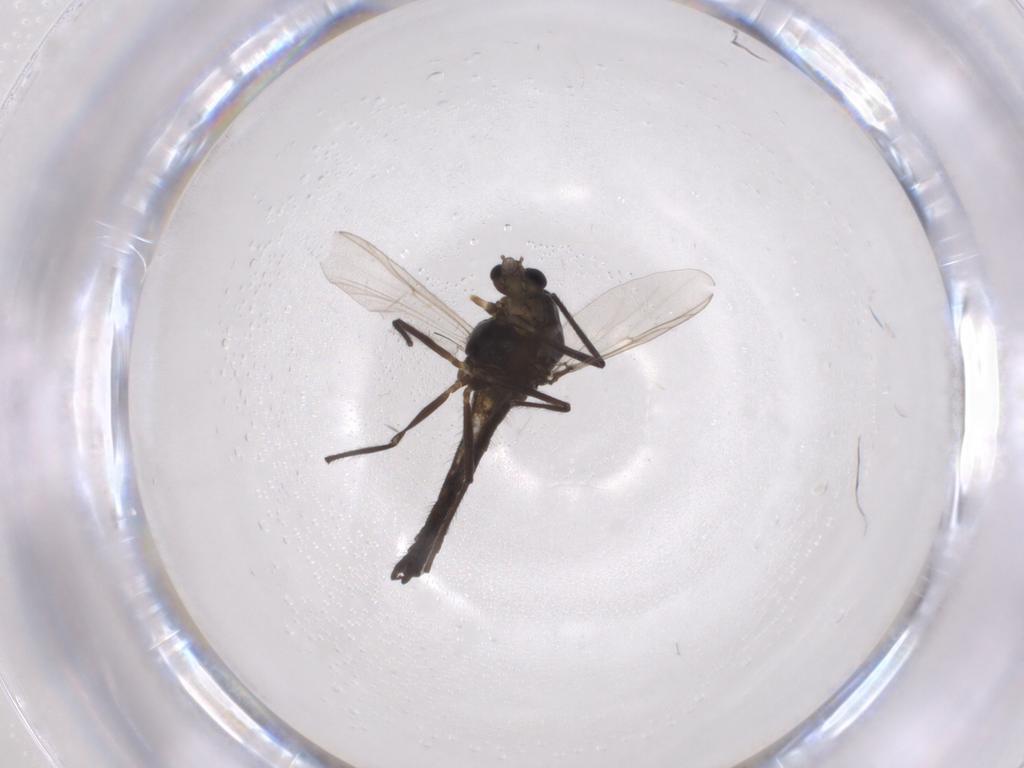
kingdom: Animalia
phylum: Arthropoda
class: Insecta
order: Diptera
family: Chironomidae
